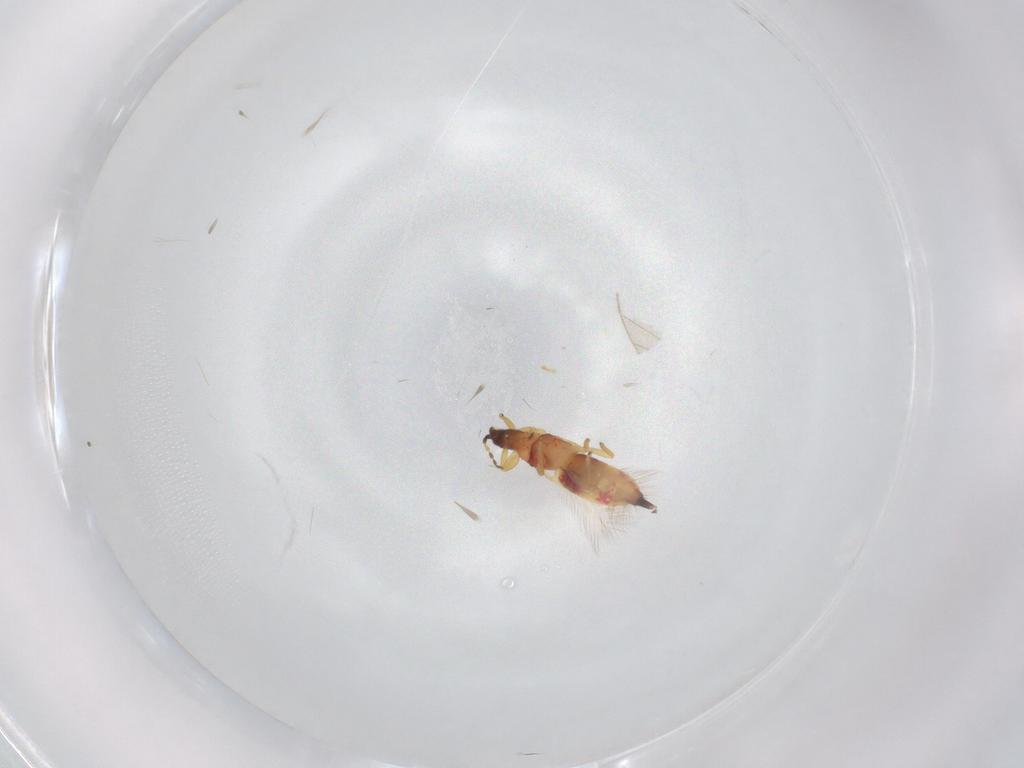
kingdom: Animalia
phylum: Arthropoda
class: Insecta
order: Thysanoptera
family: Phlaeothripidae
